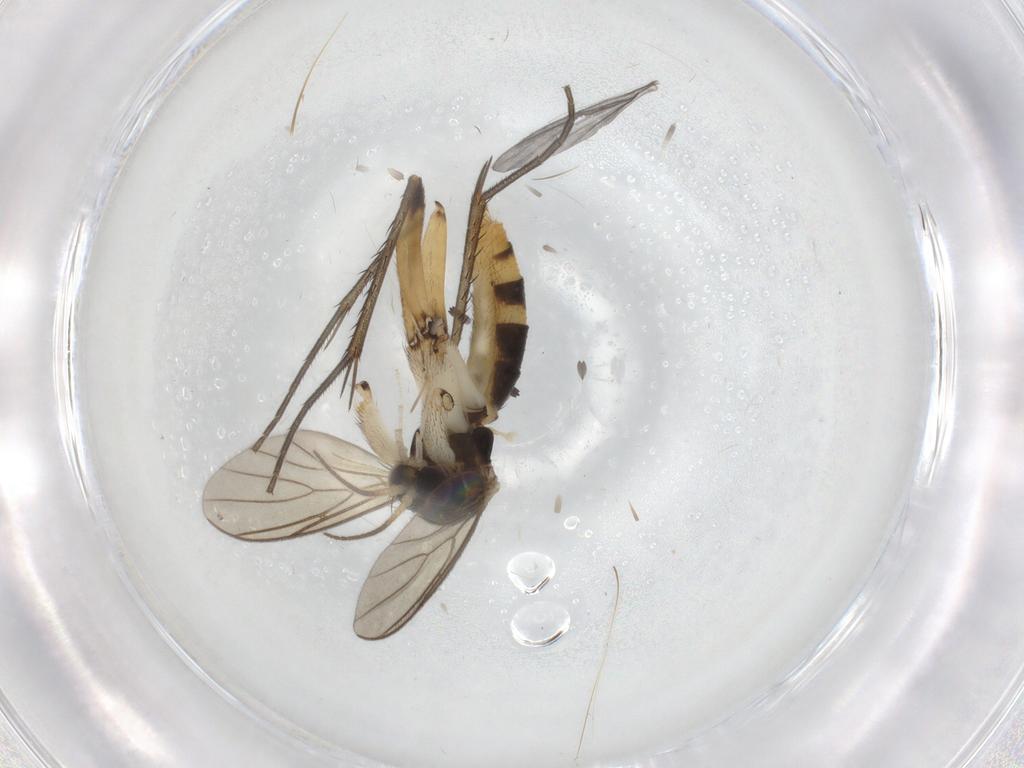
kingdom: Animalia
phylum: Arthropoda
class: Insecta
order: Diptera
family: Mycetophilidae
